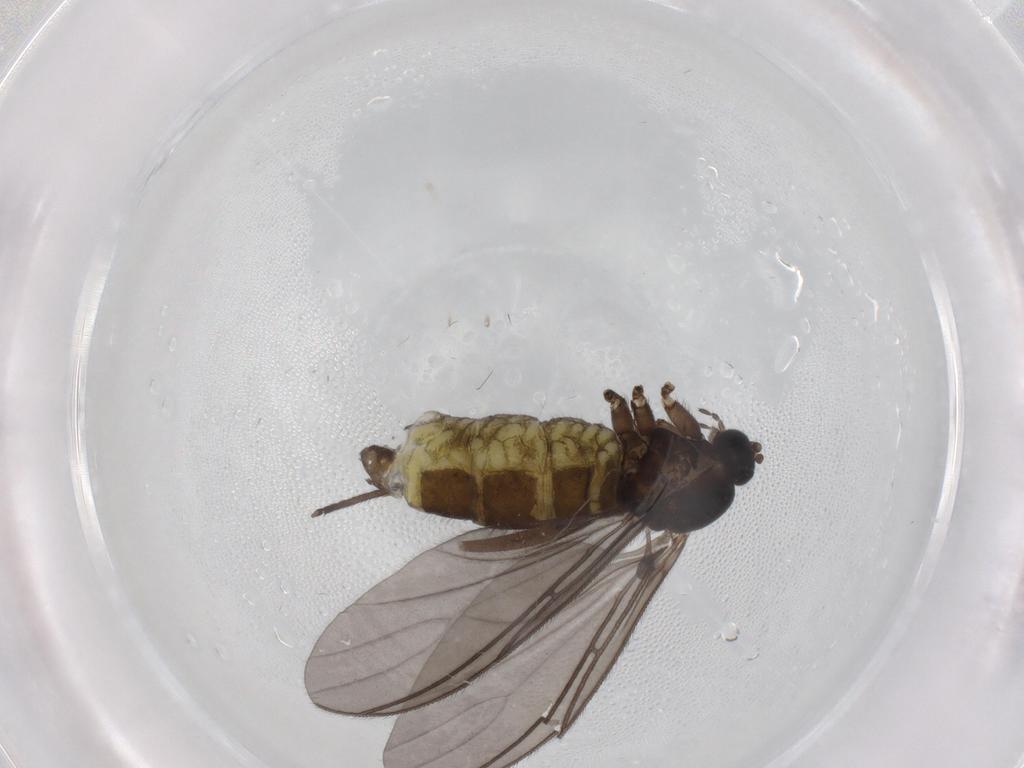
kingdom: Animalia
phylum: Arthropoda
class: Insecta
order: Diptera
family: Sciaridae
